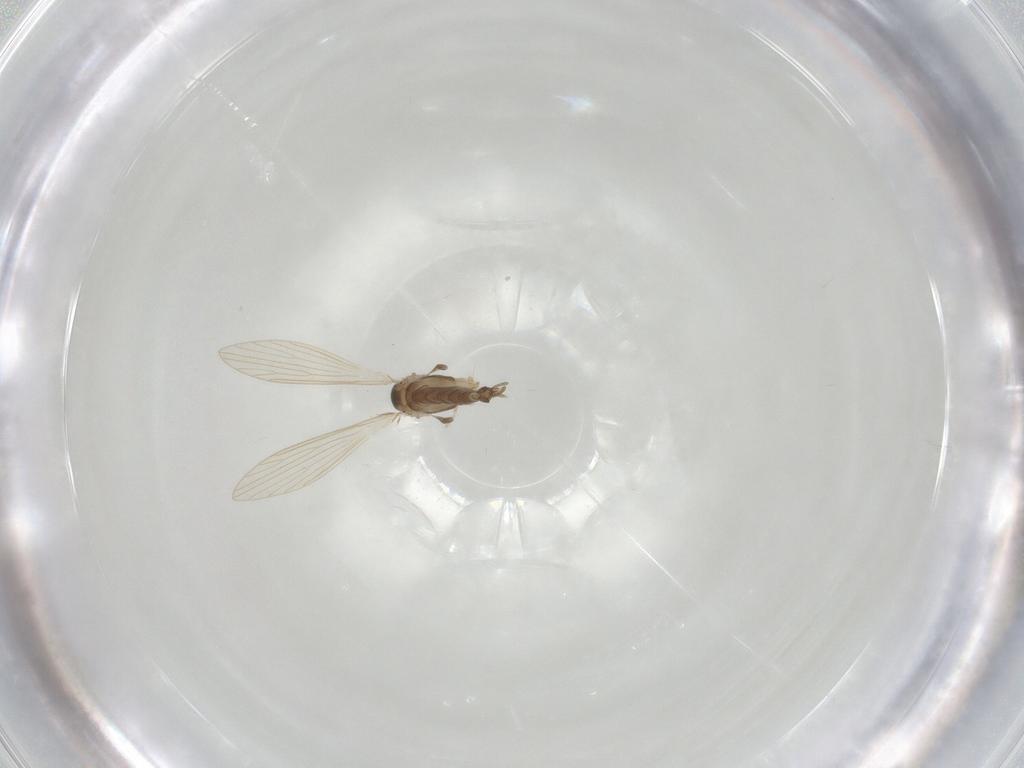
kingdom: Animalia
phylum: Arthropoda
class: Insecta
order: Diptera
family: Psychodidae
